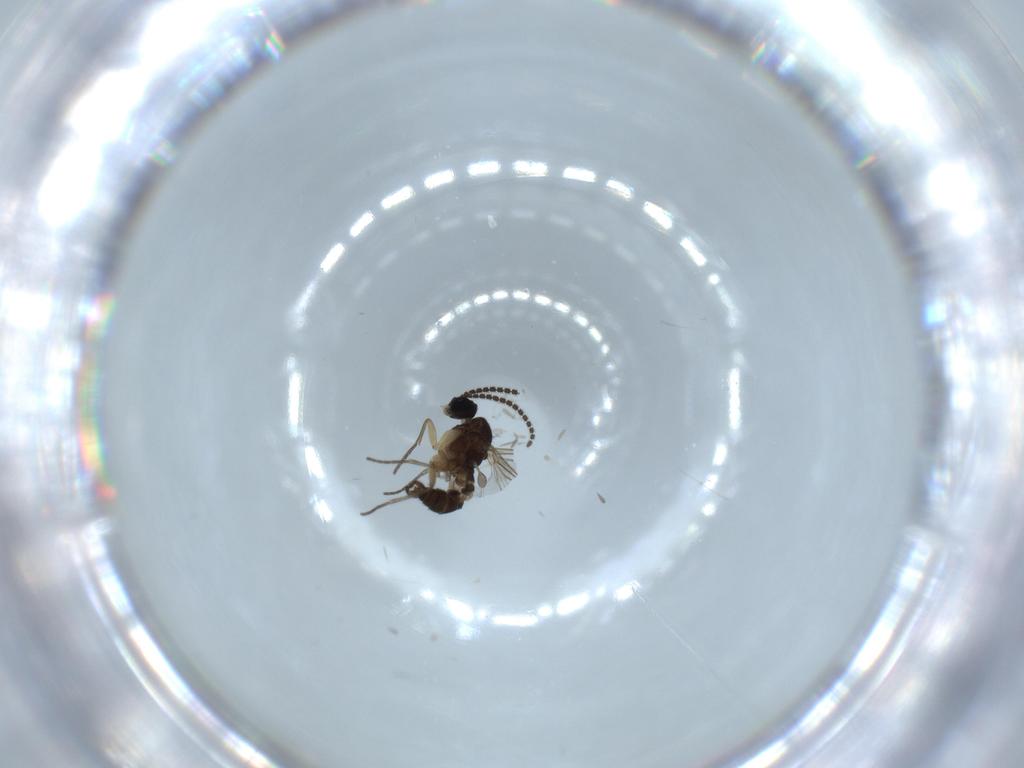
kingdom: Animalia
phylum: Arthropoda
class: Insecta
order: Diptera
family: Sciaridae
